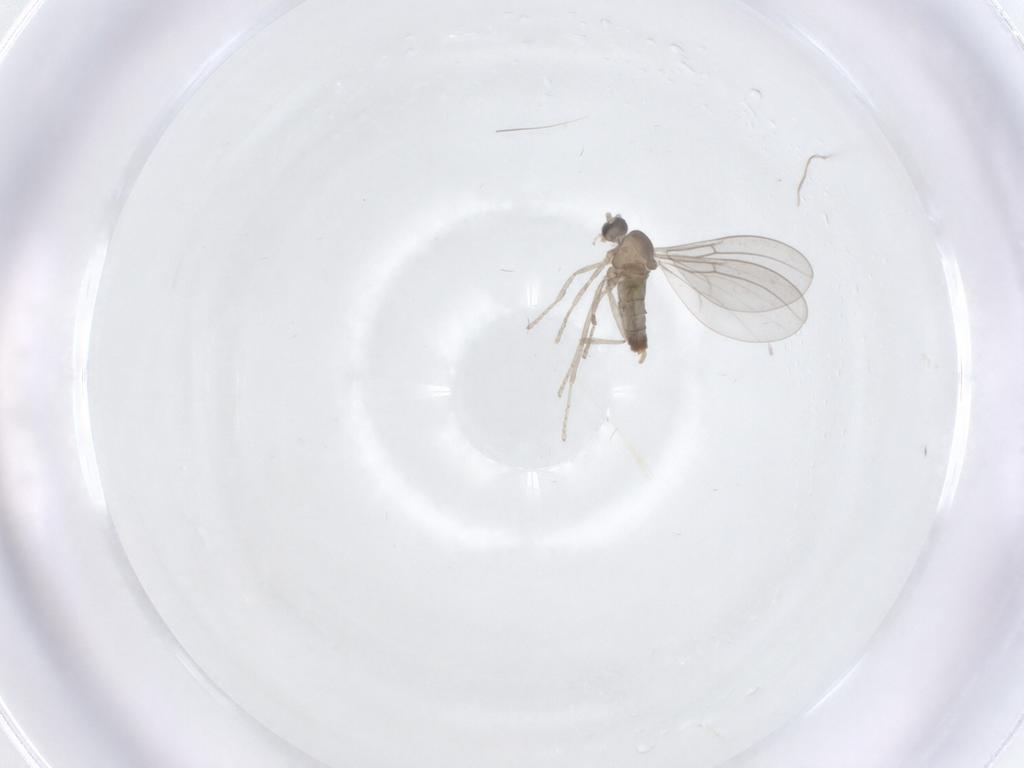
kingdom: Animalia
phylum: Arthropoda
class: Insecta
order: Diptera
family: Cecidomyiidae
